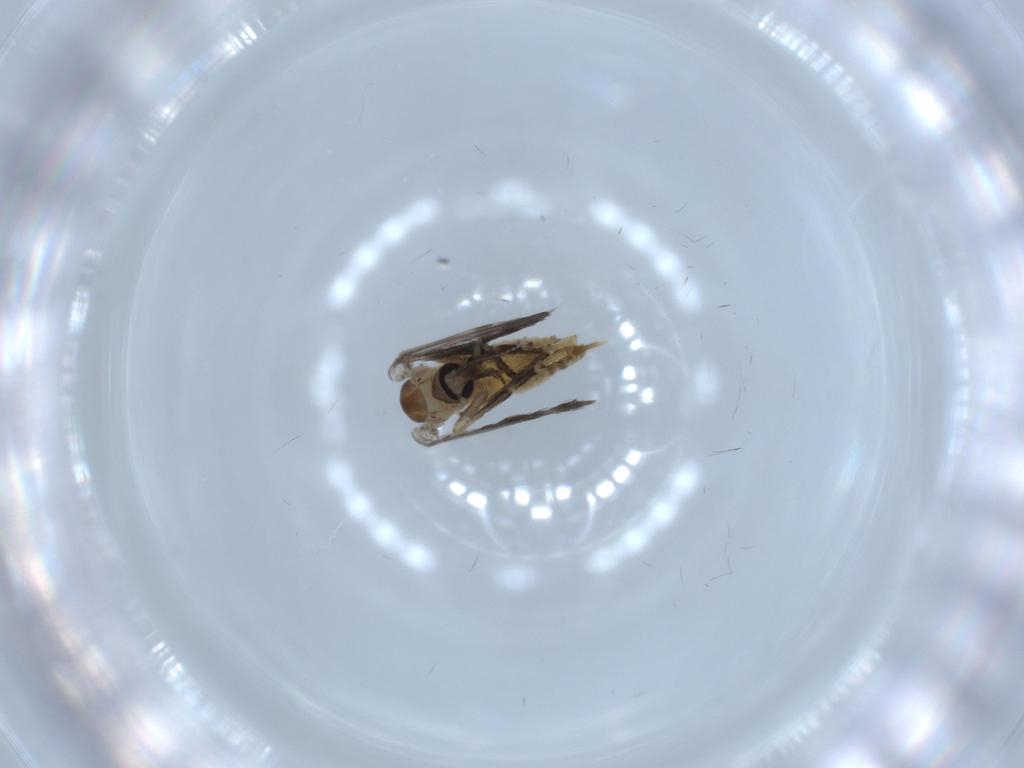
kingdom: Animalia
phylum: Arthropoda
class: Insecta
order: Diptera
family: Psychodidae
